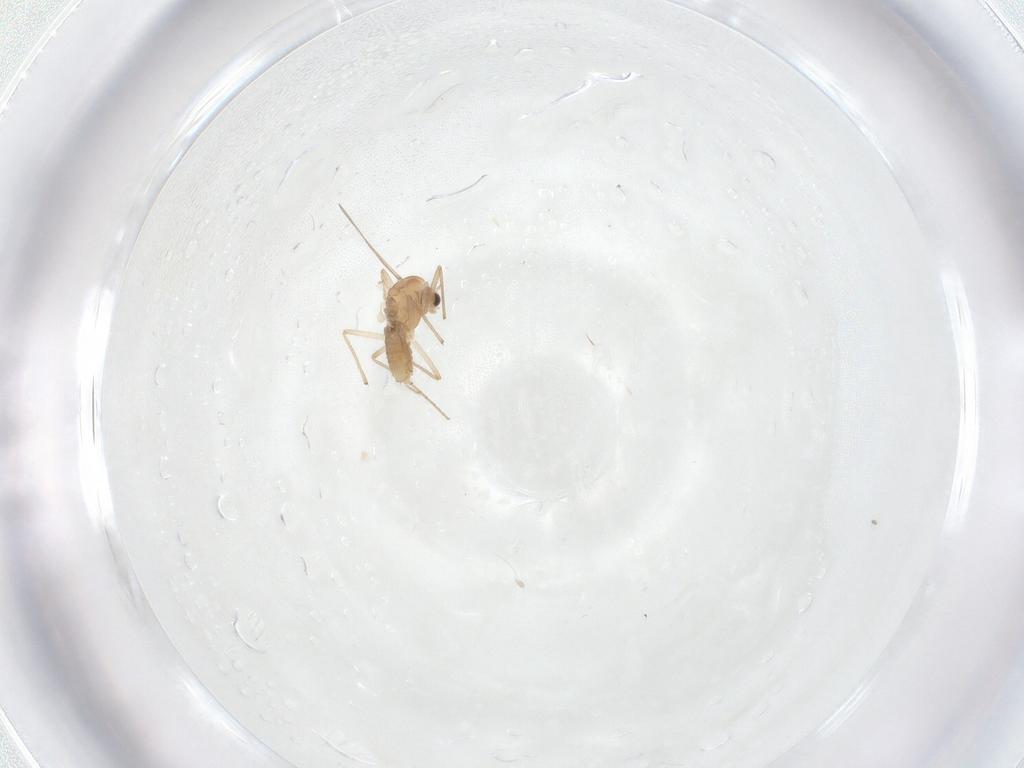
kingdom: Animalia
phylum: Arthropoda
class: Insecta
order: Diptera
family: Chironomidae
